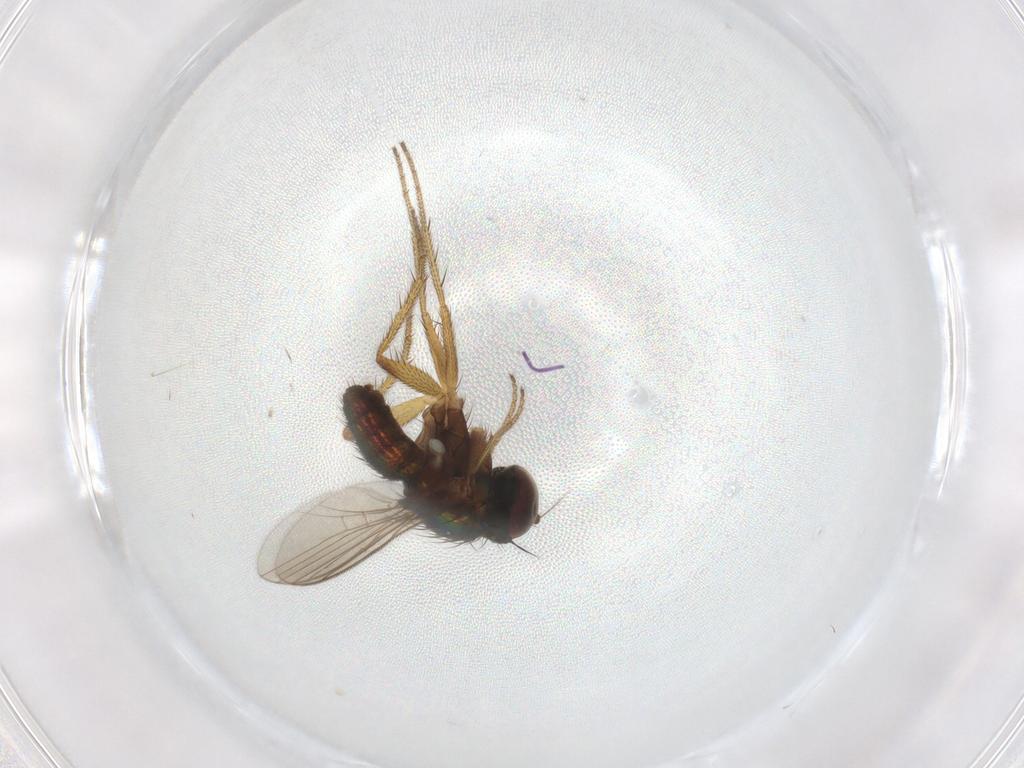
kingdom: Animalia
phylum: Arthropoda
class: Insecta
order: Diptera
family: Dolichopodidae
